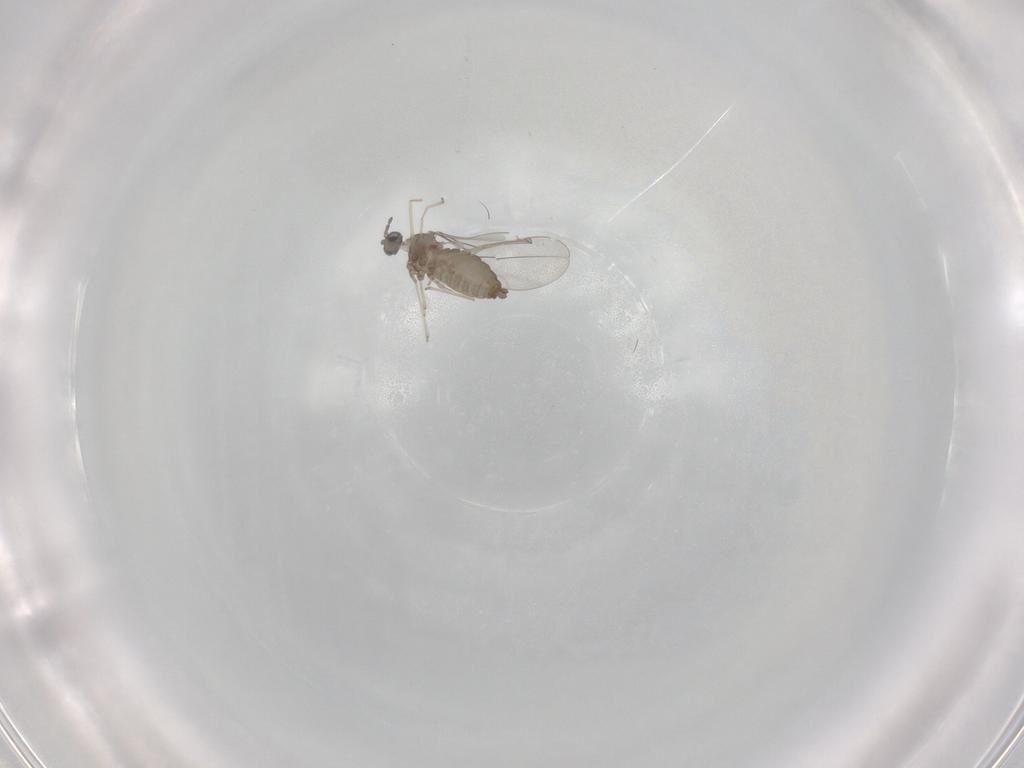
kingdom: Animalia
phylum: Arthropoda
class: Insecta
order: Diptera
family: Cecidomyiidae
